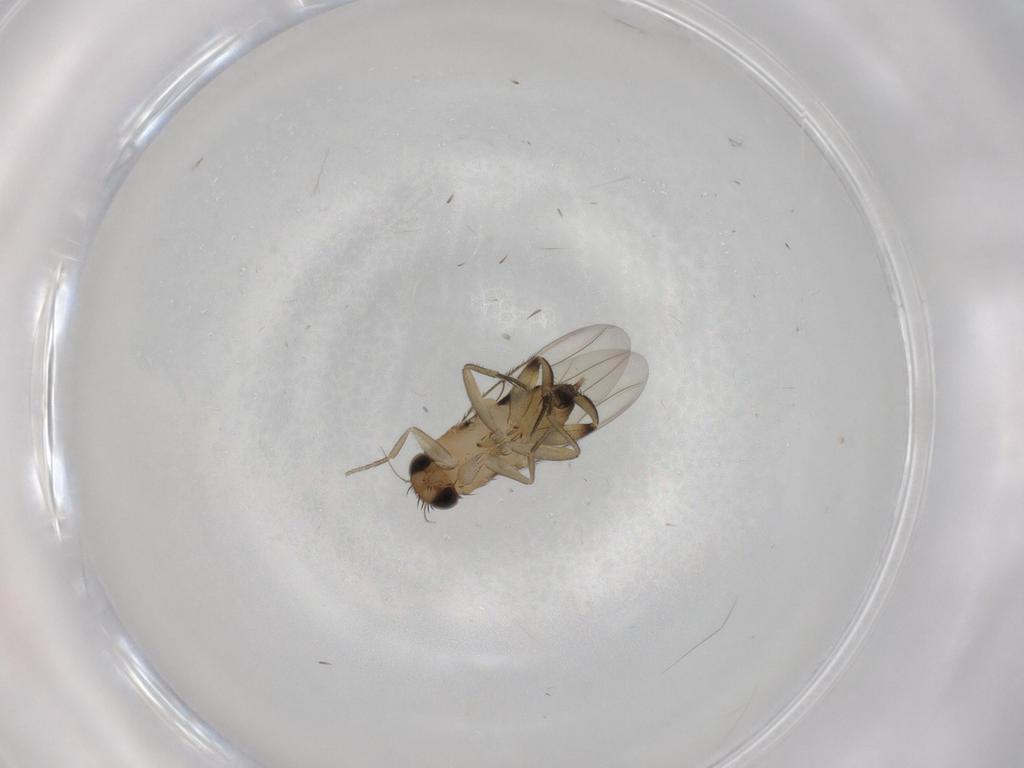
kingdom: Animalia
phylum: Arthropoda
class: Insecta
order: Diptera
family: Phoridae
